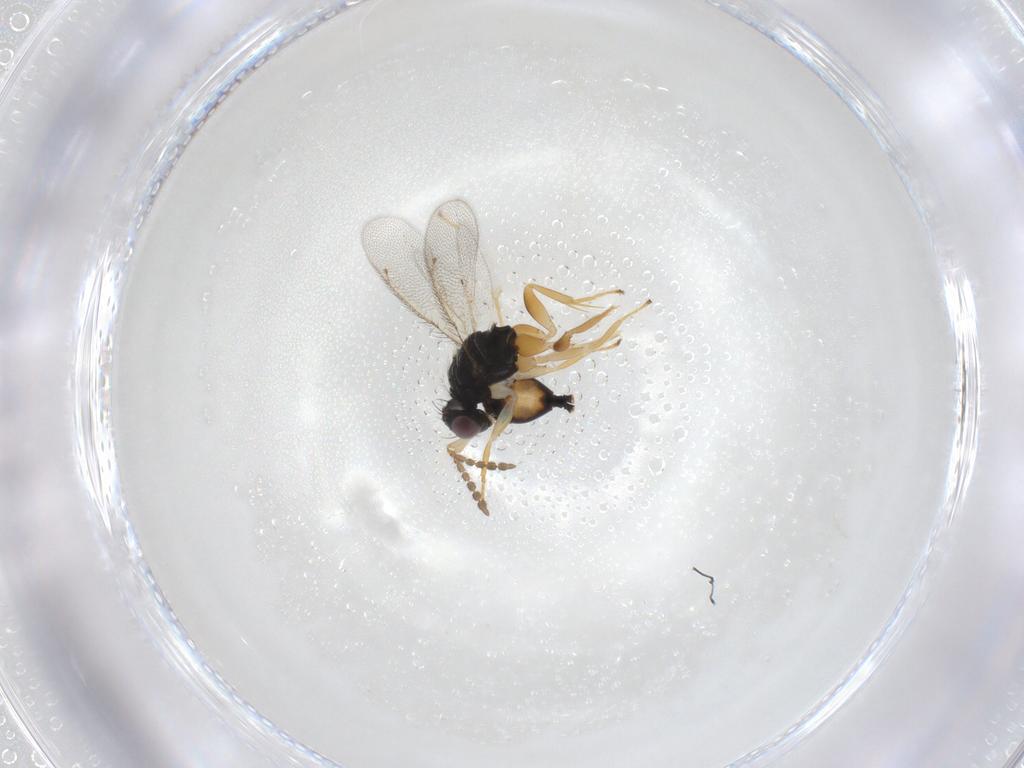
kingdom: Animalia
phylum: Arthropoda
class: Insecta
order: Hymenoptera
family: Eulophidae
